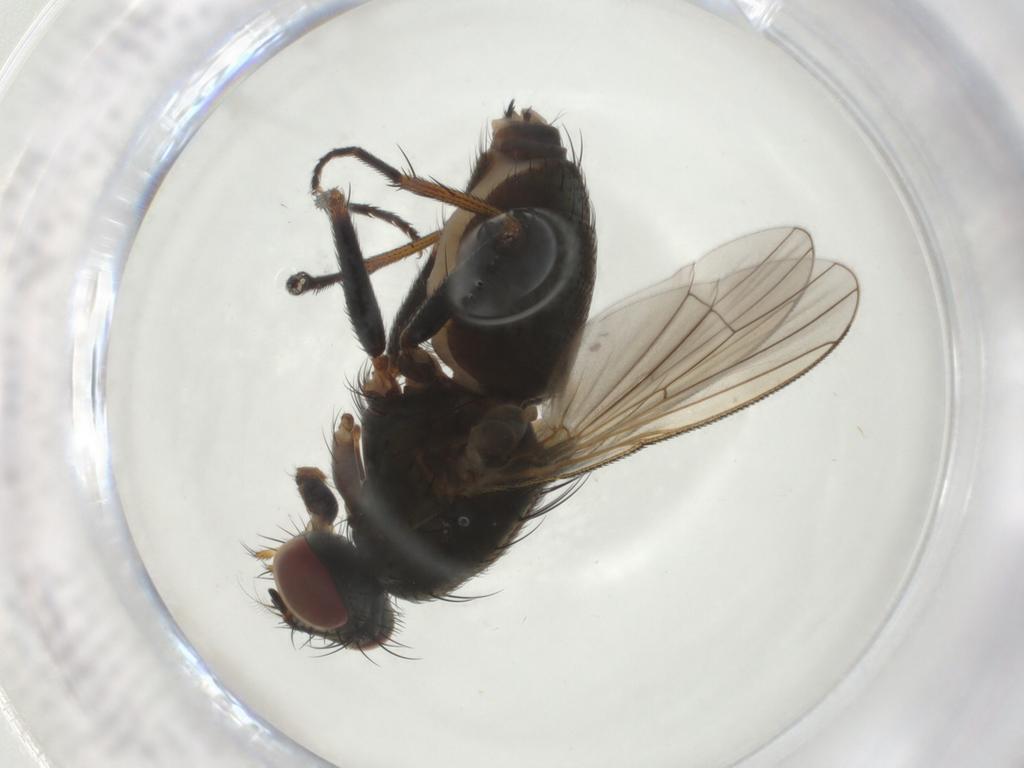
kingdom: Animalia
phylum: Arthropoda
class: Insecta
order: Diptera
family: Muscidae
